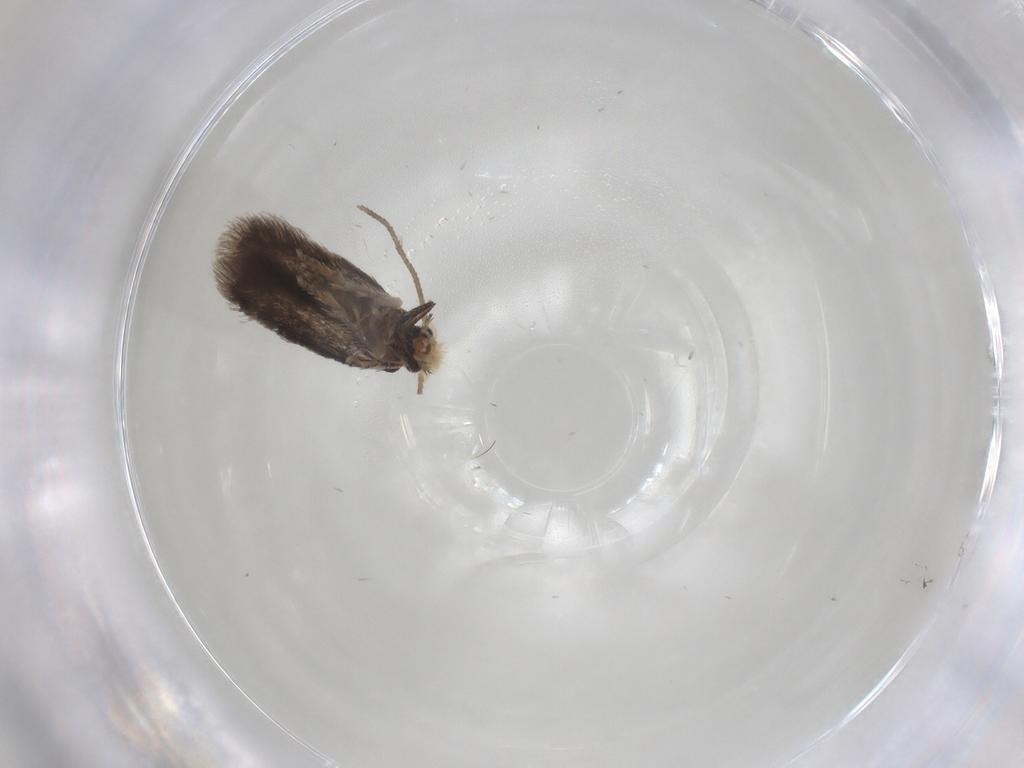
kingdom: Animalia
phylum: Arthropoda
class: Insecta
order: Lepidoptera
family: Nepticulidae
